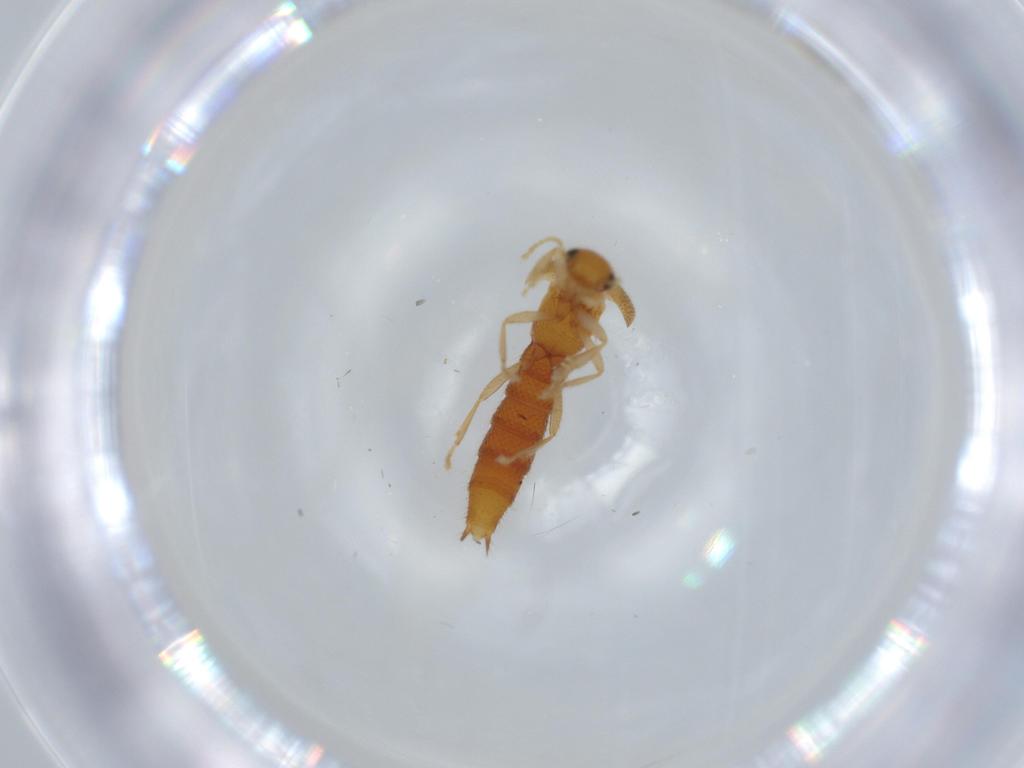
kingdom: Animalia
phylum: Arthropoda
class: Insecta
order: Coleoptera
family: Staphylinidae
